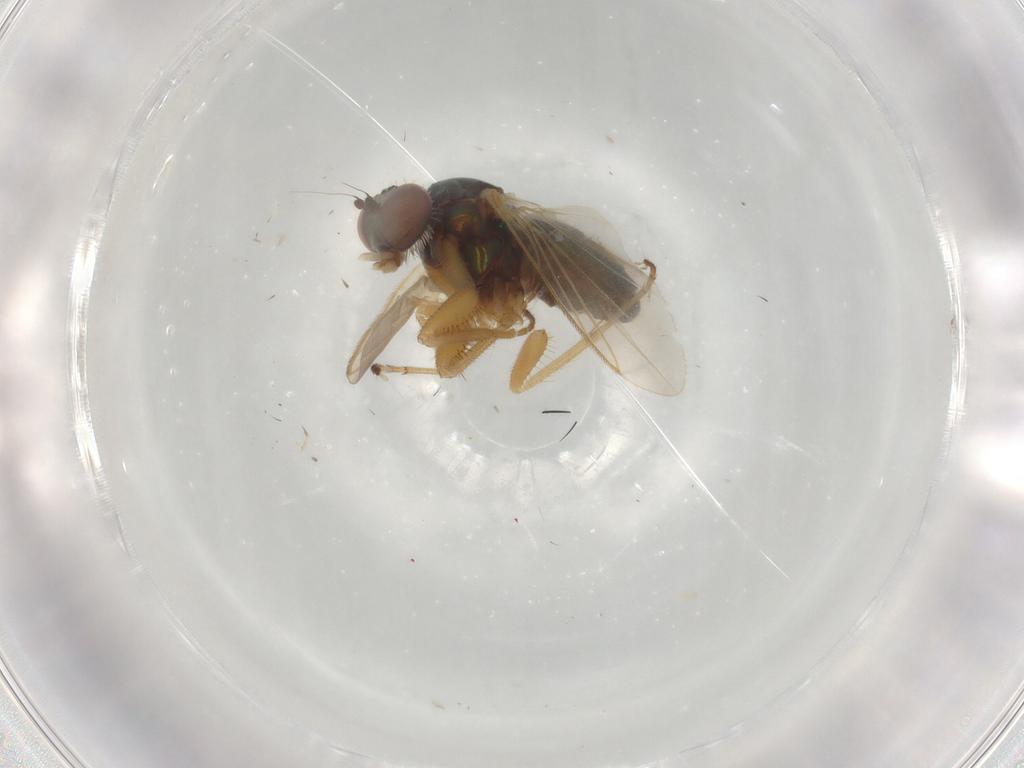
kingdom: Animalia
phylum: Arthropoda
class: Insecta
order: Diptera
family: Dolichopodidae
